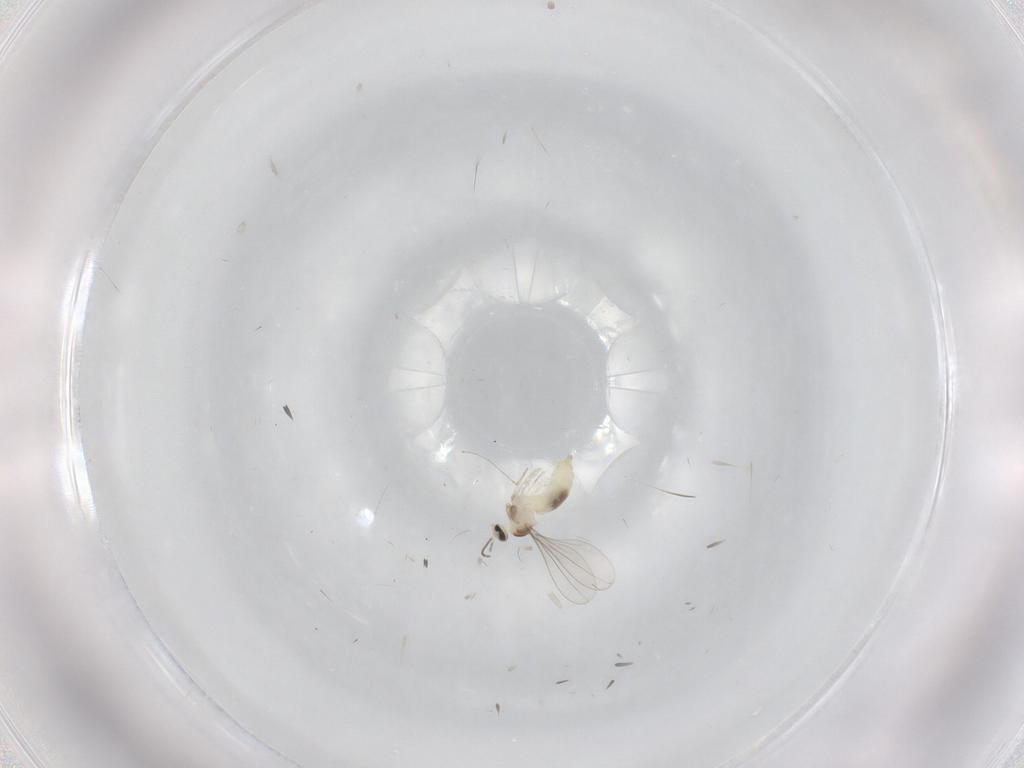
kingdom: Animalia
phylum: Arthropoda
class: Insecta
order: Diptera
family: Cecidomyiidae
